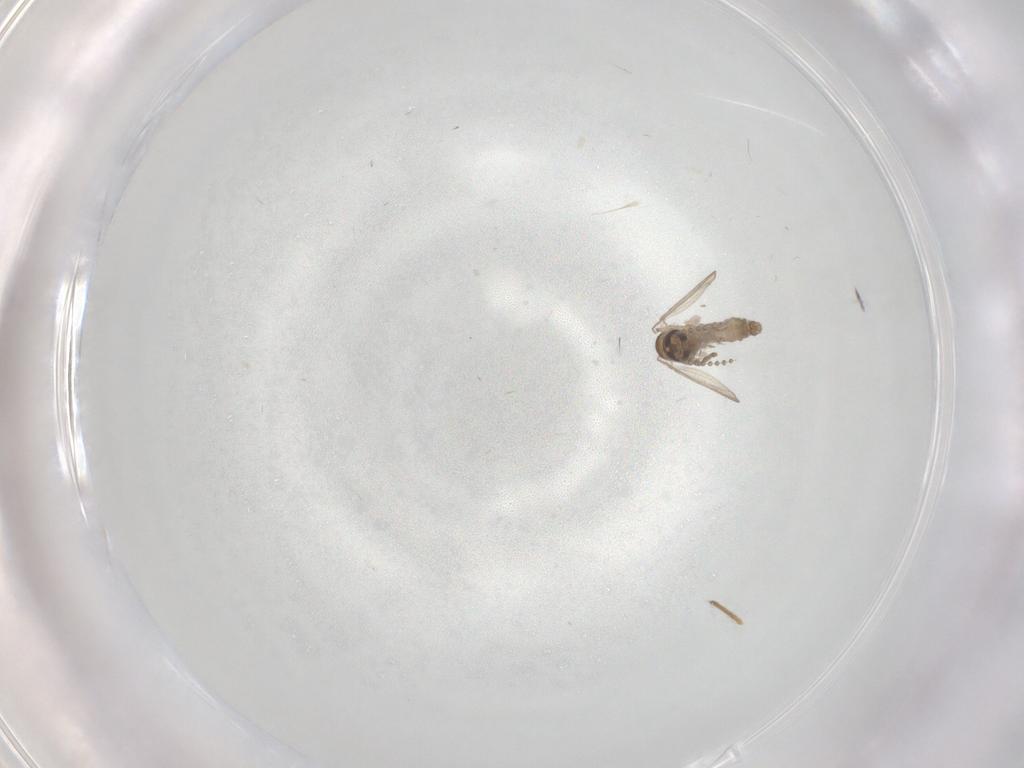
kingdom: Animalia
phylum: Arthropoda
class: Insecta
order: Diptera
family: Psychodidae
